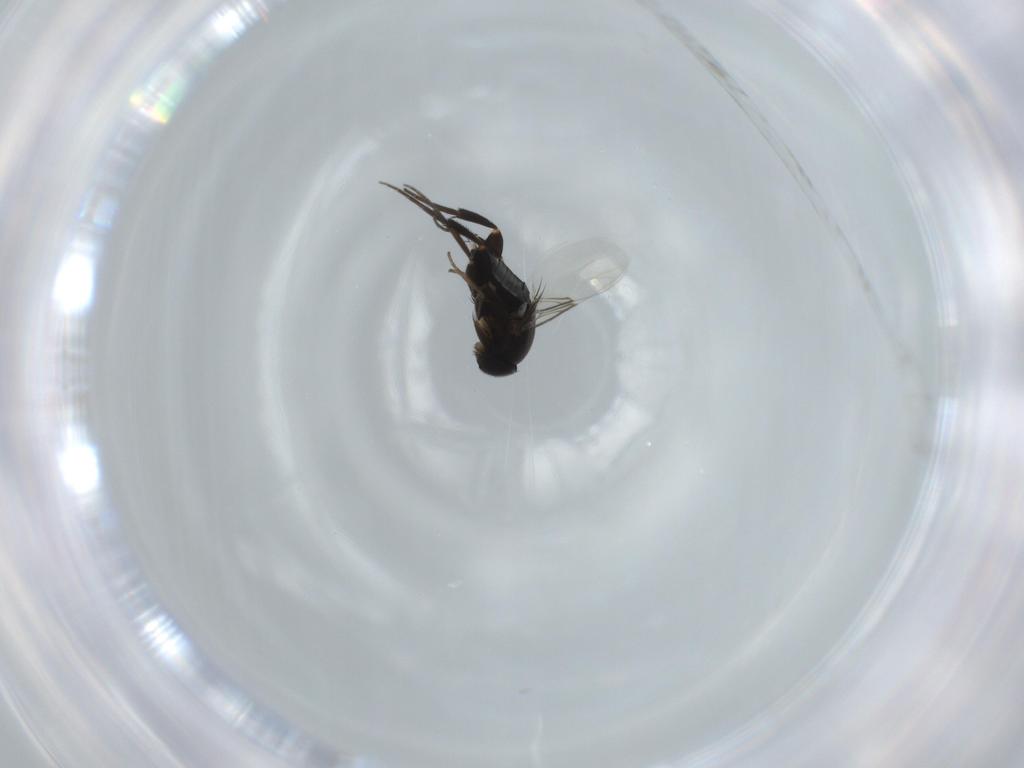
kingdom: Animalia
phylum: Arthropoda
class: Insecta
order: Diptera
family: Phoridae
